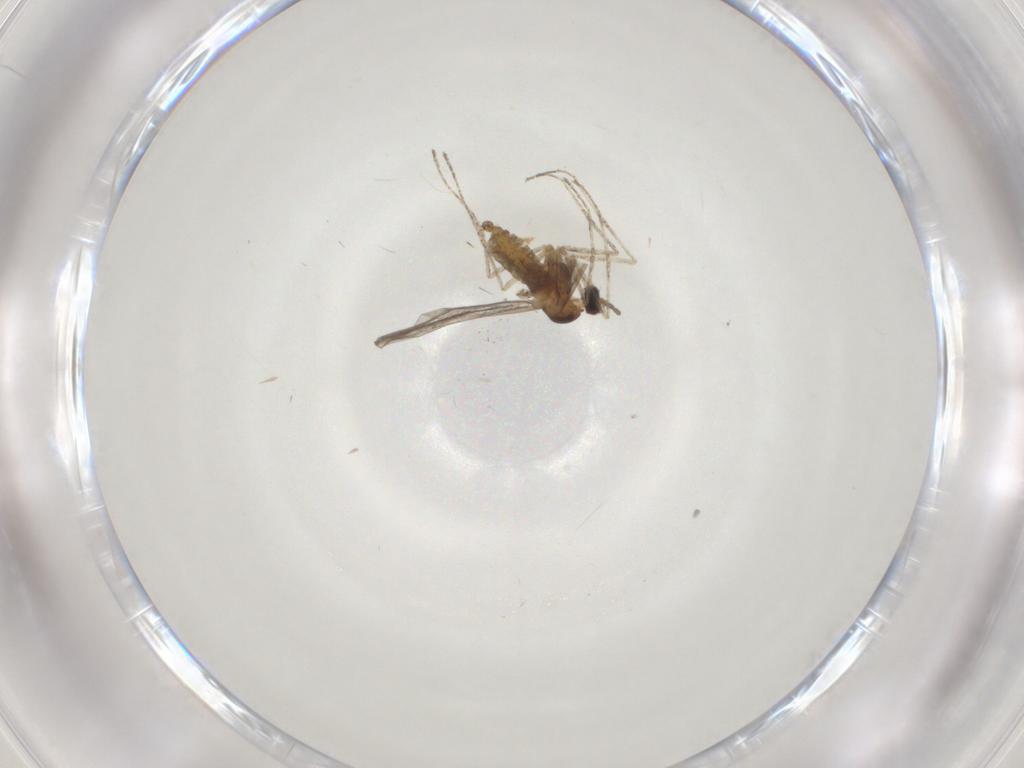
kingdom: Animalia
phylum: Arthropoda
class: Insecta
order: Diptera
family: Cecidomyiidae
